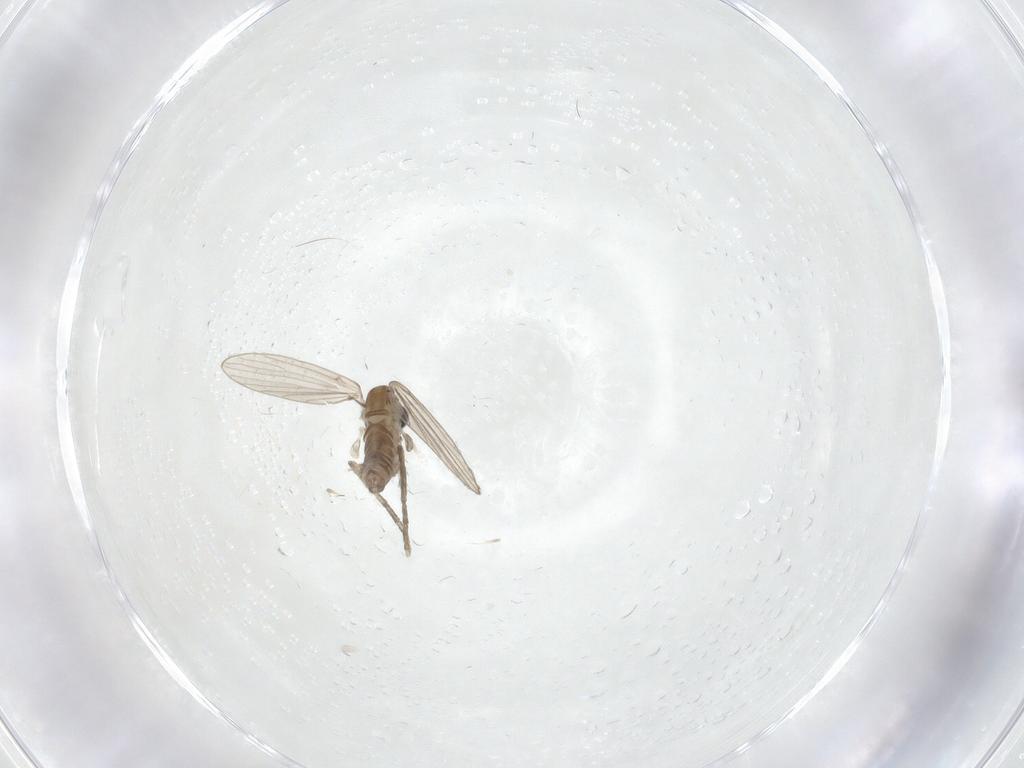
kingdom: Animalia
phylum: Arthropoda
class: Insecta
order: Diptera
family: Psychodidae
